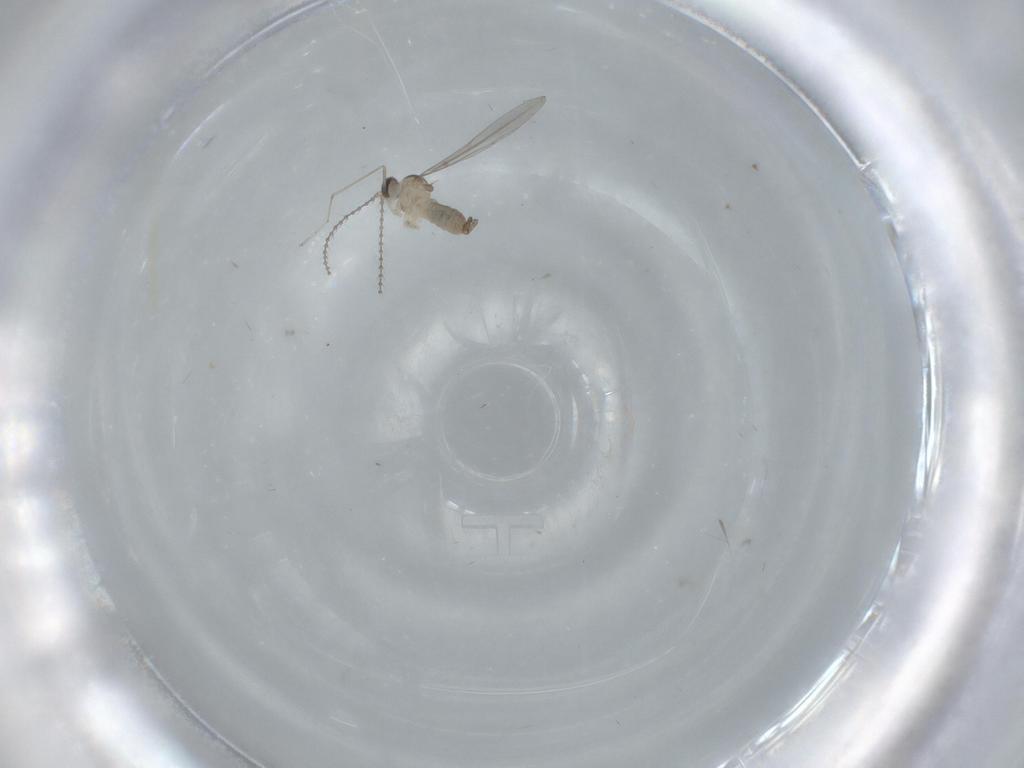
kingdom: Animalia
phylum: Arthropoda
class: Insecta
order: Diptera
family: Cecidomyiidae
